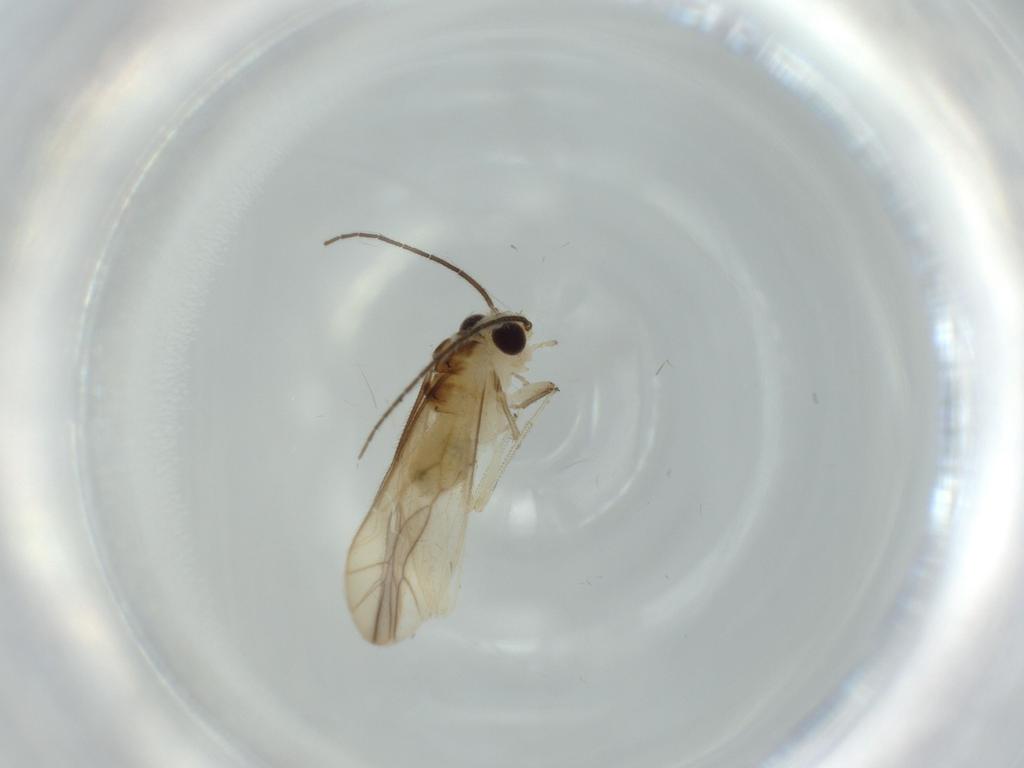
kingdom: Animalia
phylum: Arthropoda
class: Insecta
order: Psocodea
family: Caeciliusidae
